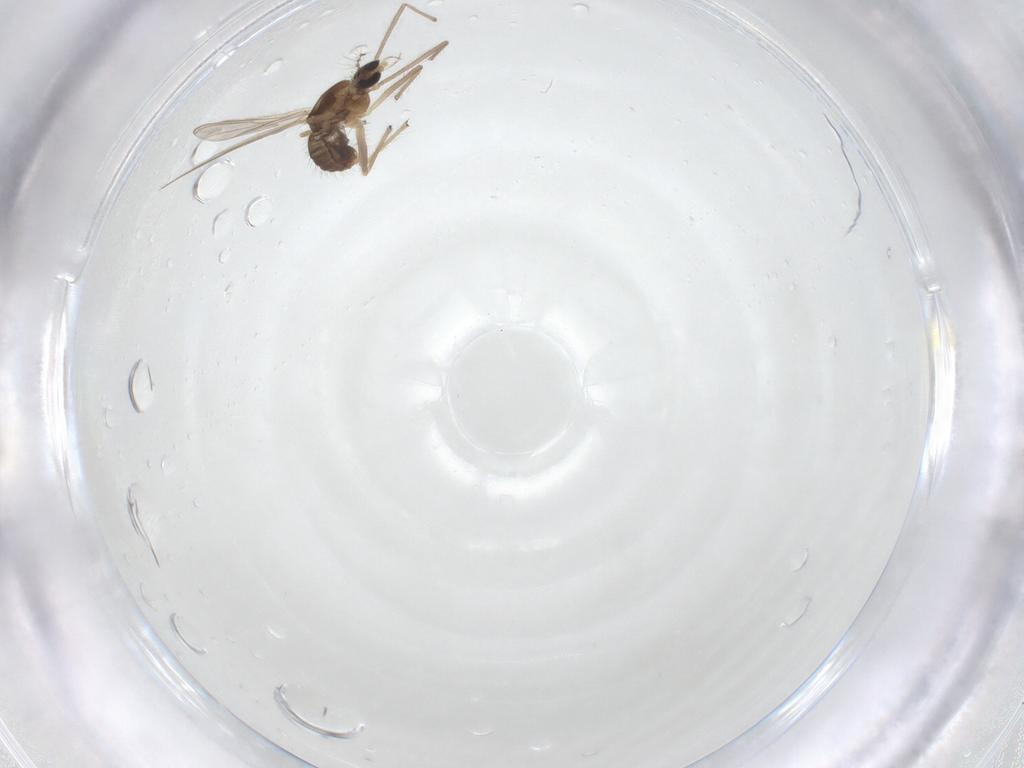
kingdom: Animalia
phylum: Arthropoda
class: Insecta
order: Diptera
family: Chironomidae
